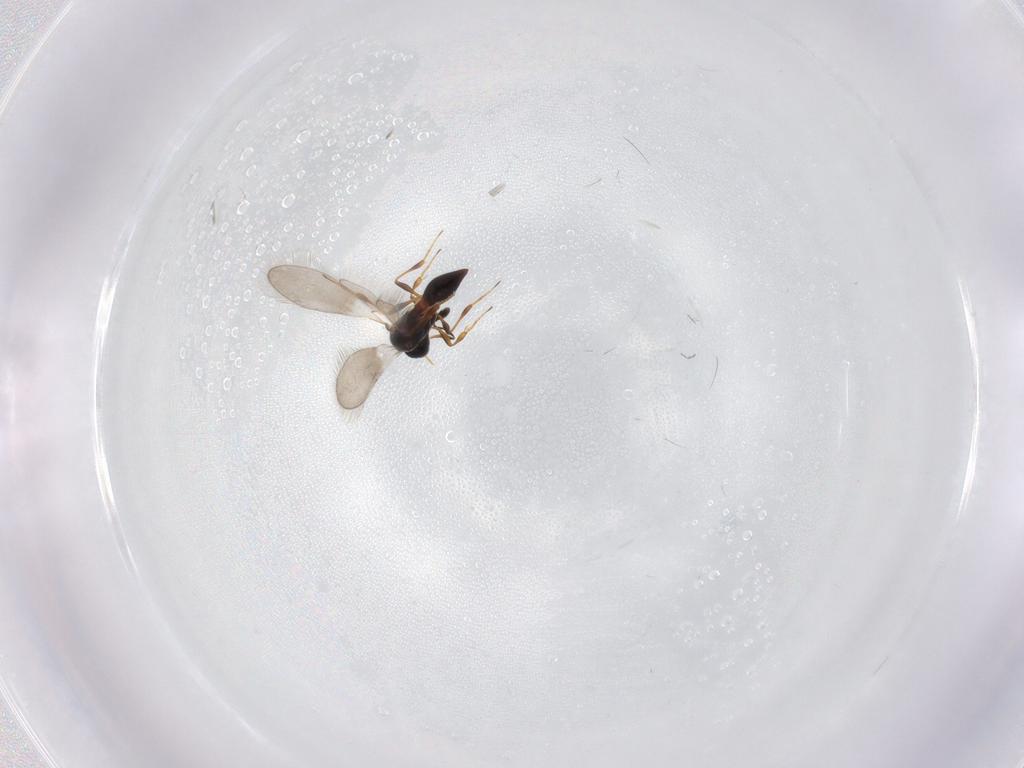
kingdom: Animalia
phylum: Arthropoda
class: Insecta
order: Hymenoptera
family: Platygastridae
